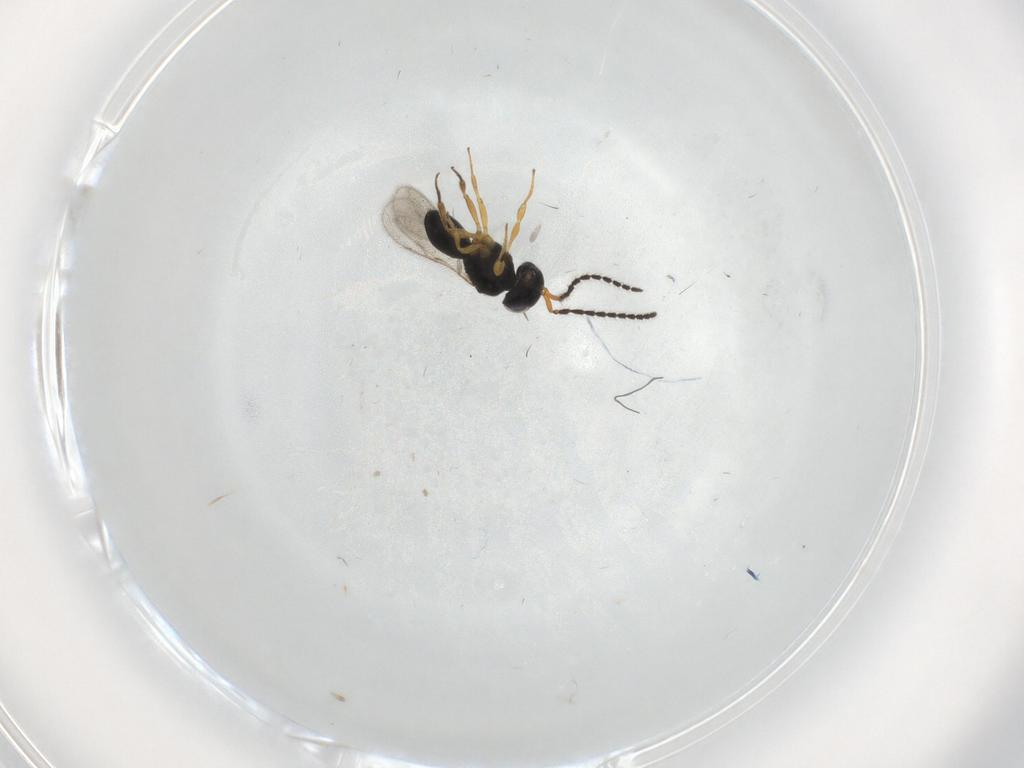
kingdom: Animalia
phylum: Arthropoda
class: Insecta
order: Hymenoptera
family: Scelionidae
